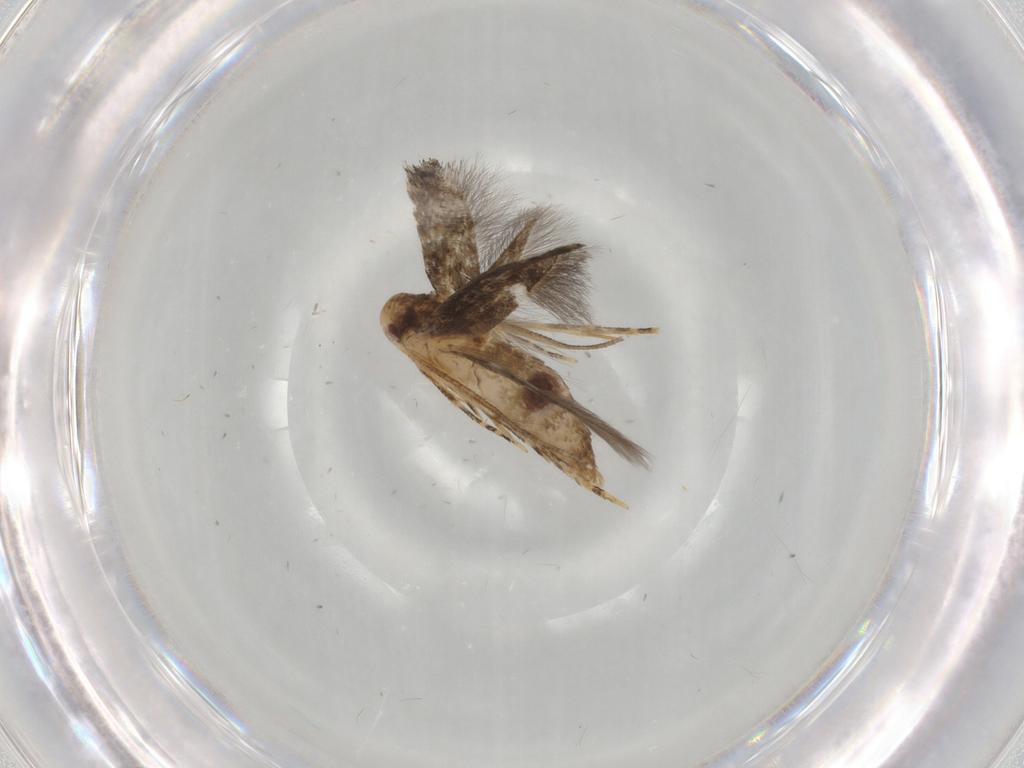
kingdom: Animalia
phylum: Arthropoda
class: Insecta
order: Lepidoptera
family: Momphidae
